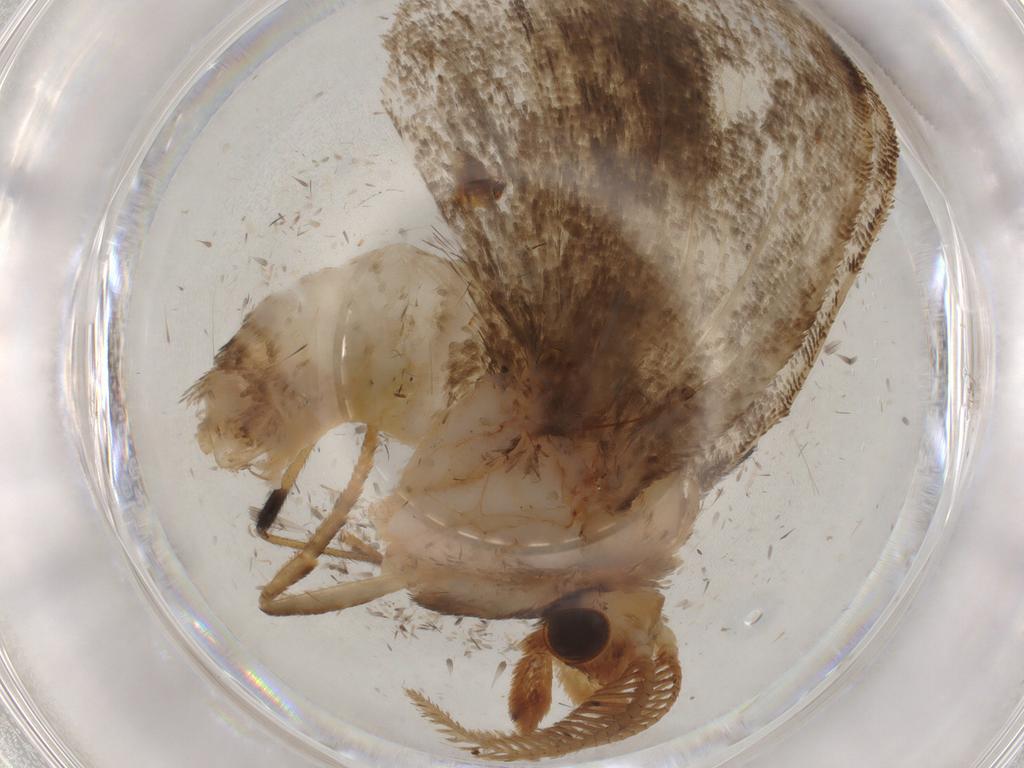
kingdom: Animalia
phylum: Arthropoda
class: Insecta
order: Lepidoptera
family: Limacodidae
